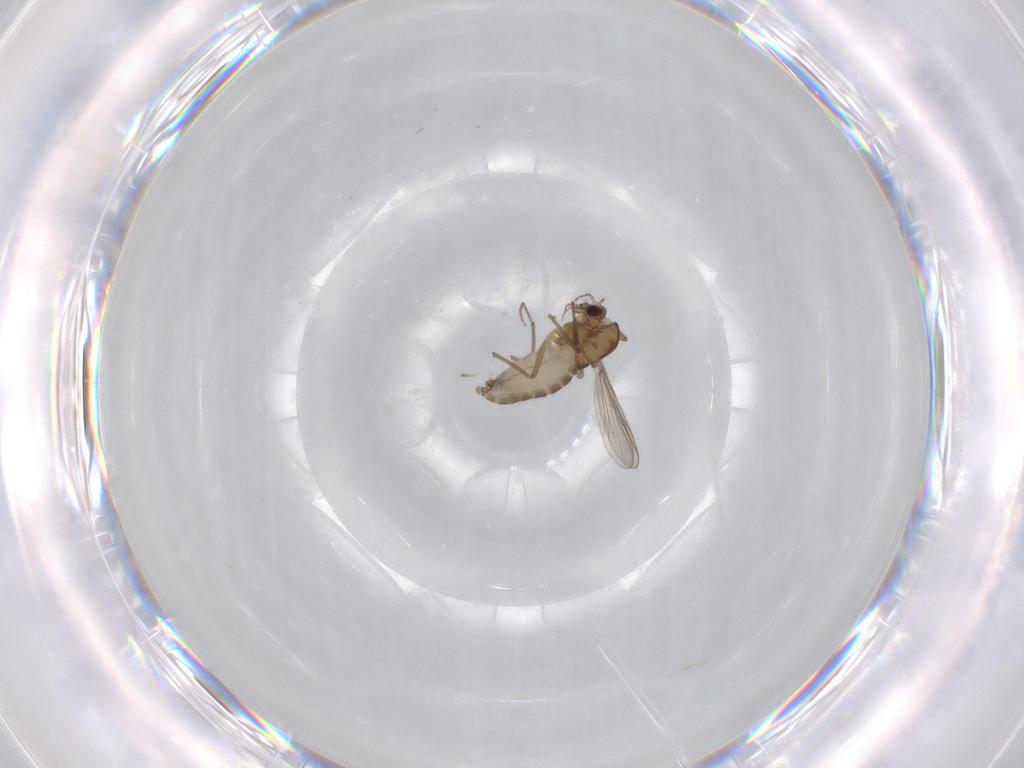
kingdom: Animalia
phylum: Arthropoda
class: Insecta
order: Diptera
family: Chironomidae
